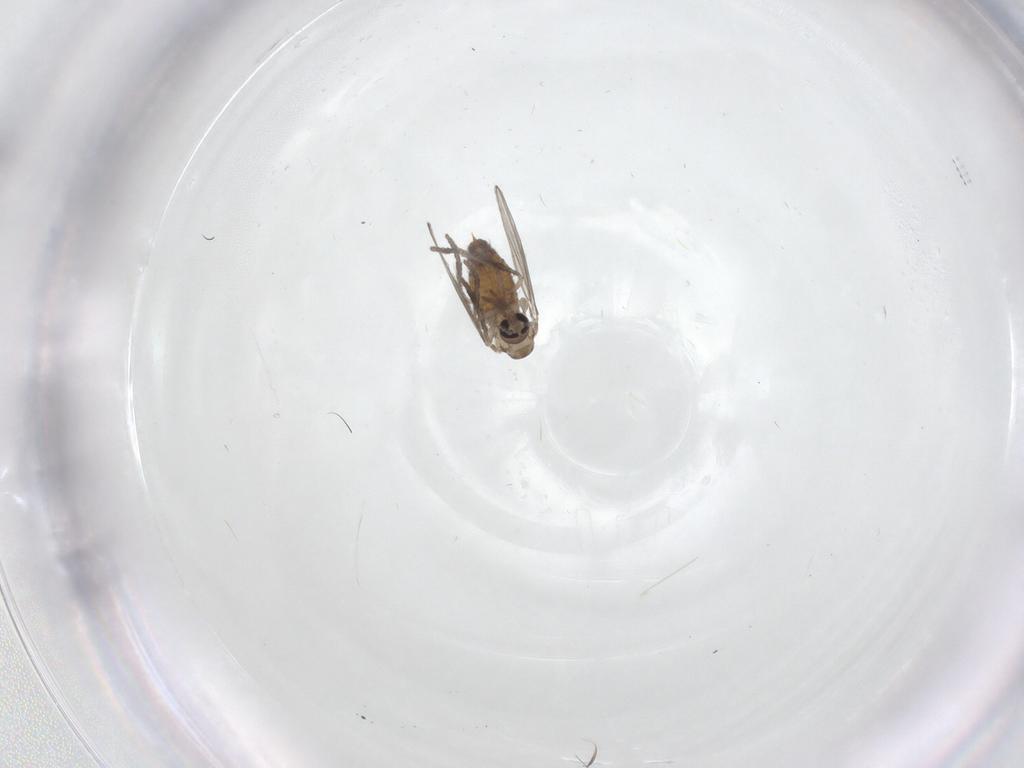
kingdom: Animalia
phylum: Arthropoda
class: Insecta
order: Diptera
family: Psychodidae
